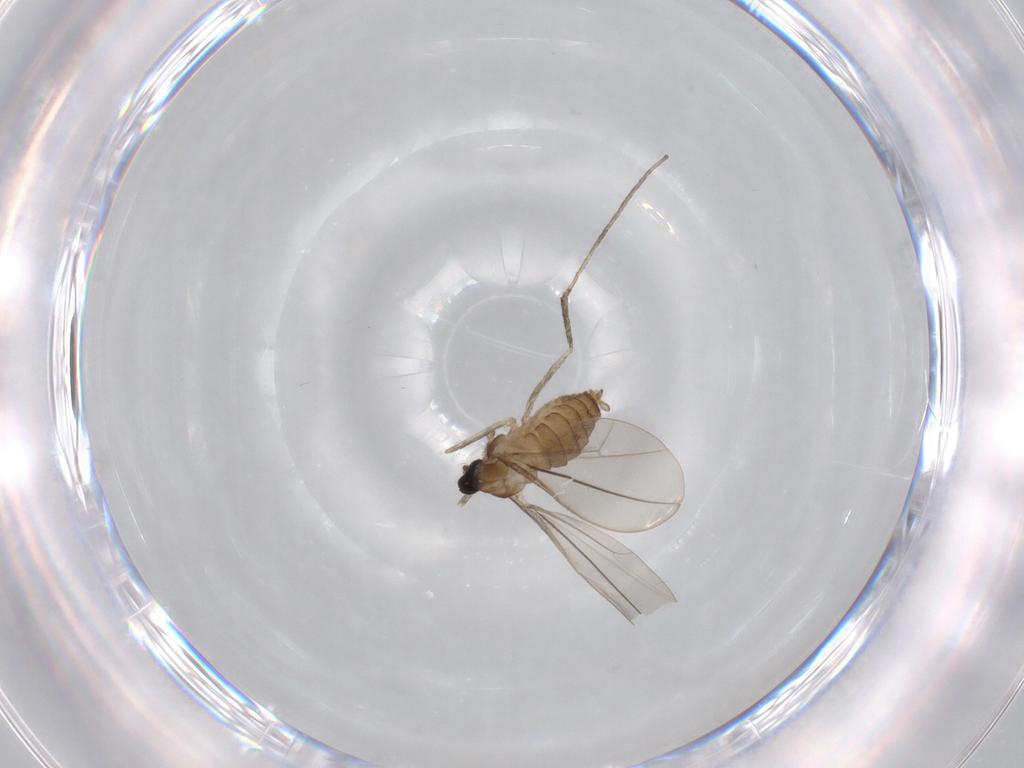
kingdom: Animalia
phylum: Arthropoda
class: Insecta
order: Diptera
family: Cecidomyiidae
